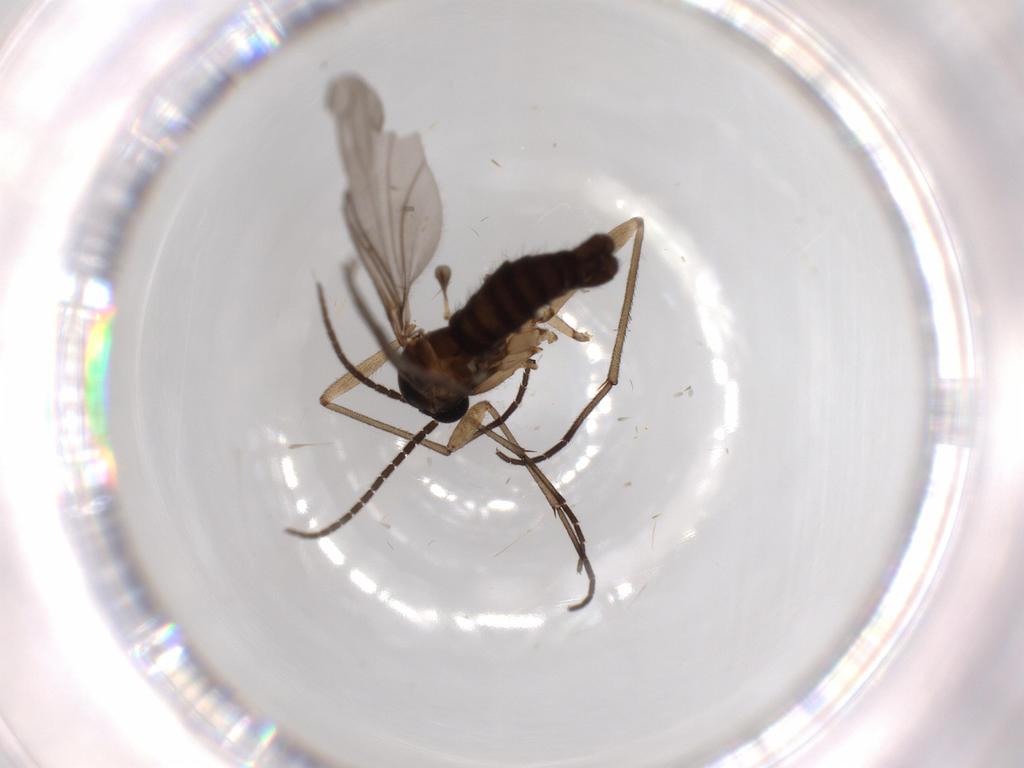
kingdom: Animalia
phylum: Arthropoda
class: Insecta
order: Diptera
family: Sciaridae
